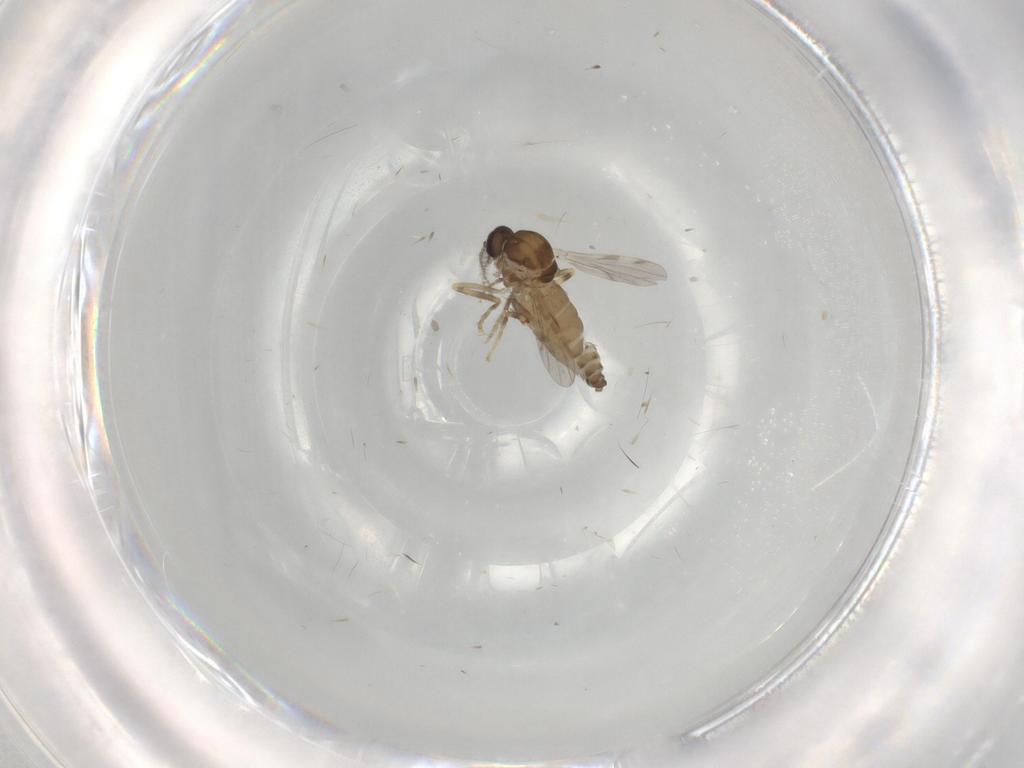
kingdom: Animalia
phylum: Arthropoda
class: Insecta
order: Diptera
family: Ceratopogonidae
